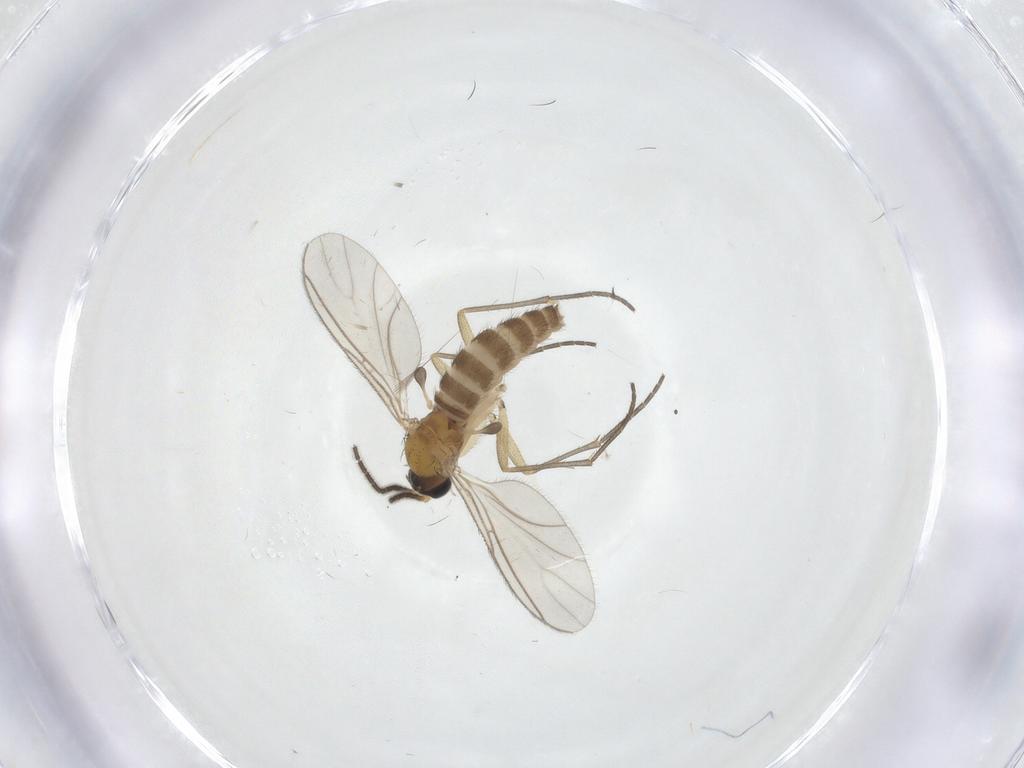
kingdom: Animalia
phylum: Arthropoda
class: Insecta
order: Diptera
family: Sciaridae
